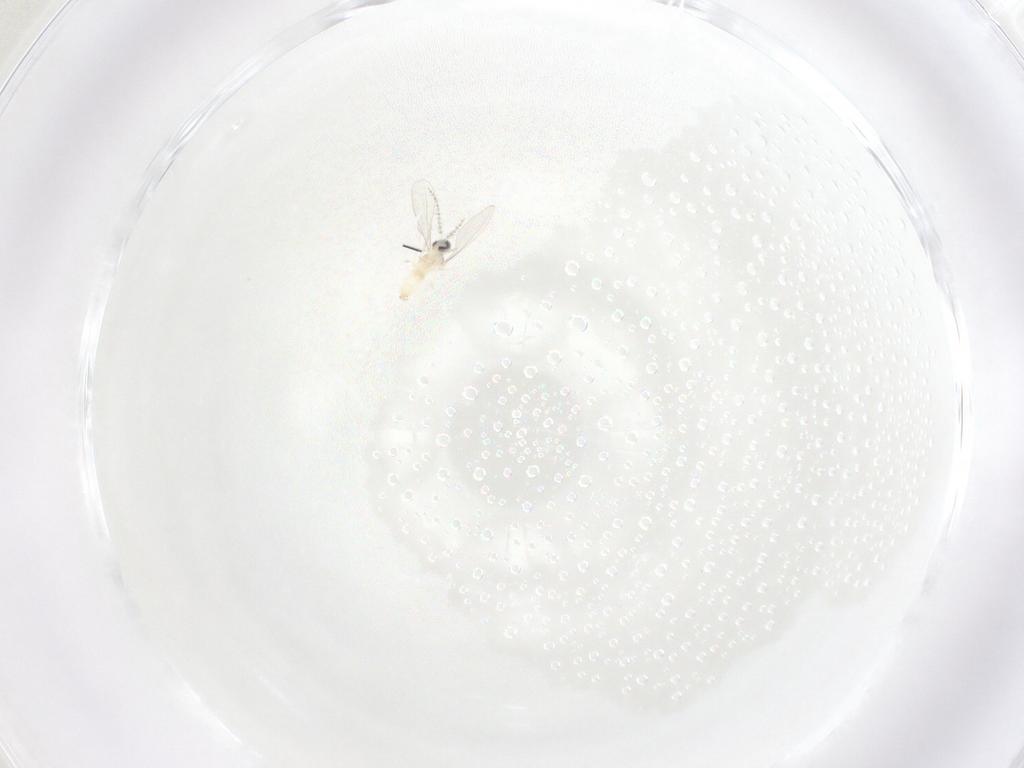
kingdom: Animalia
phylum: Arthropoda
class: Insecta
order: Diptera
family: Cecidomyiidae
